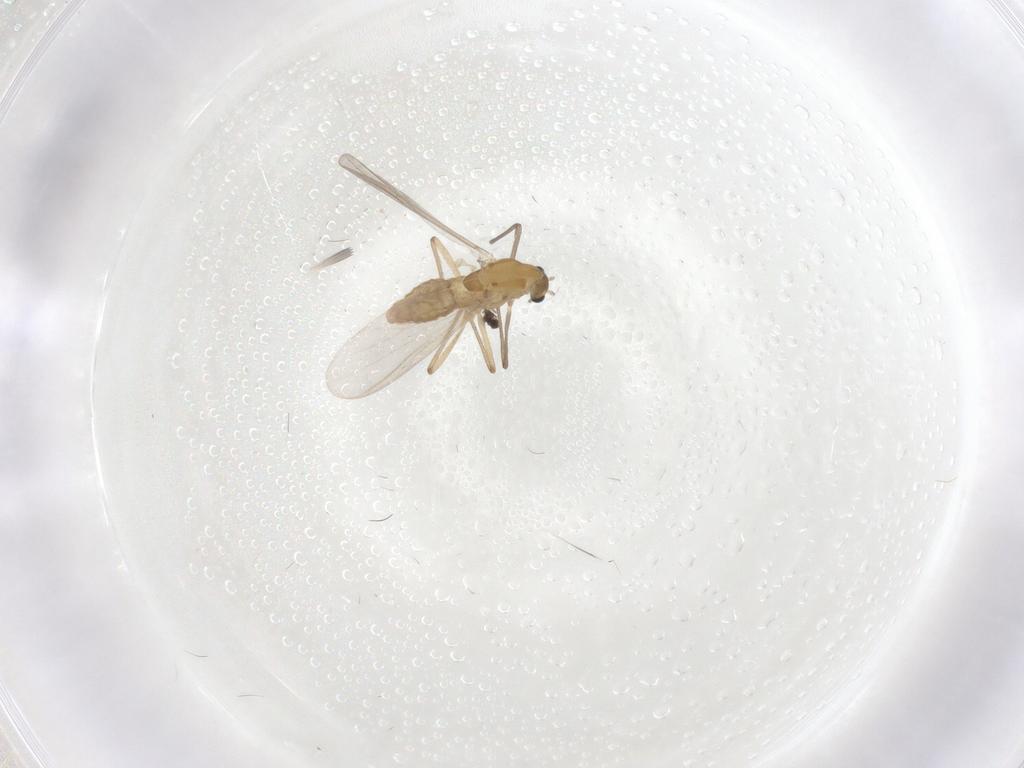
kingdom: Animalia
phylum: Arthropoda
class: Insecta
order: Diptera
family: Chironomidae
